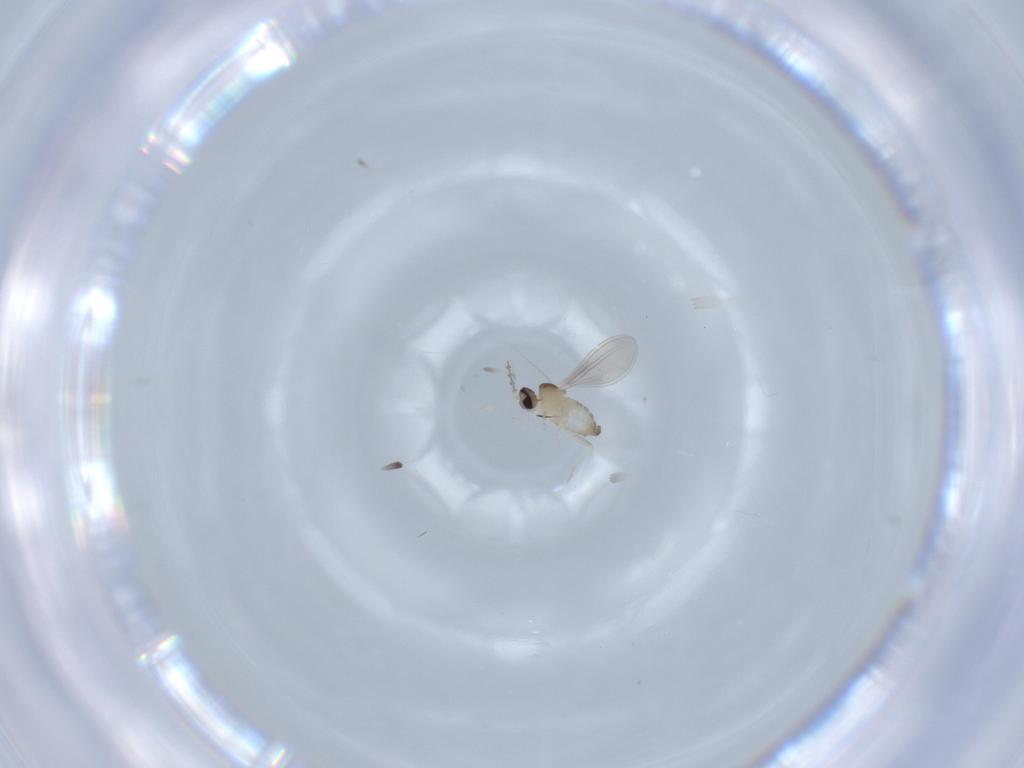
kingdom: Animalia
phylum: Arthropoda
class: Insecta
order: Diptera
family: Cecidomyiidae
